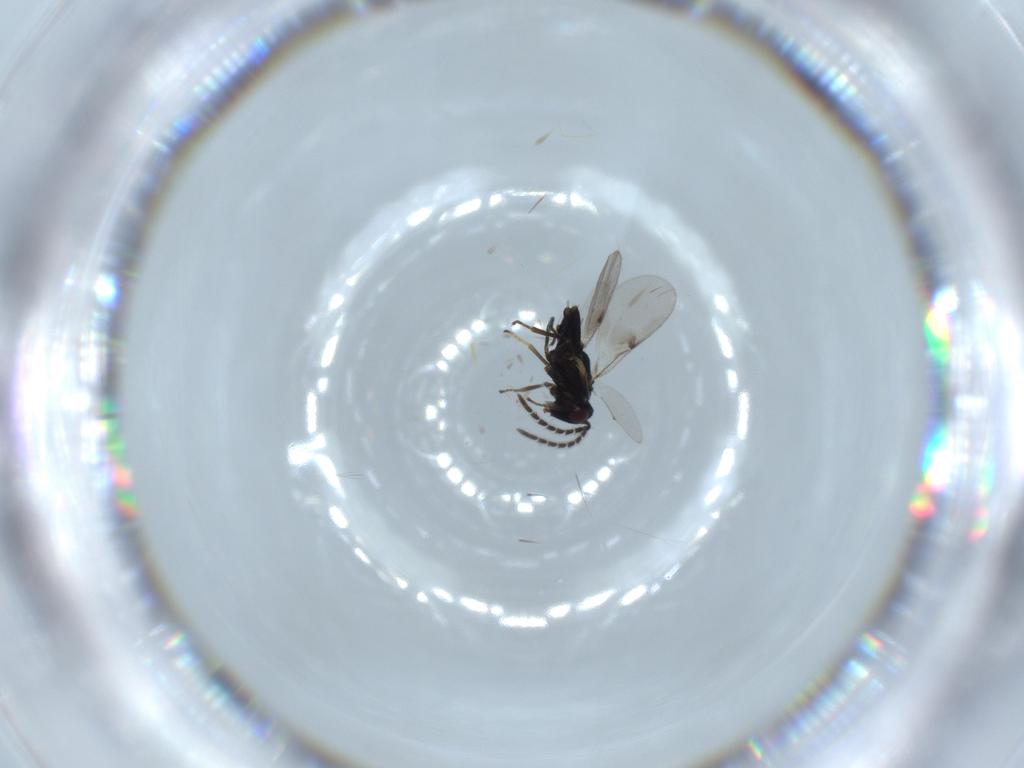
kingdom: Animalia
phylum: Arthropoda
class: Insecta
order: Hymenoptera
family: Encyrtidae
